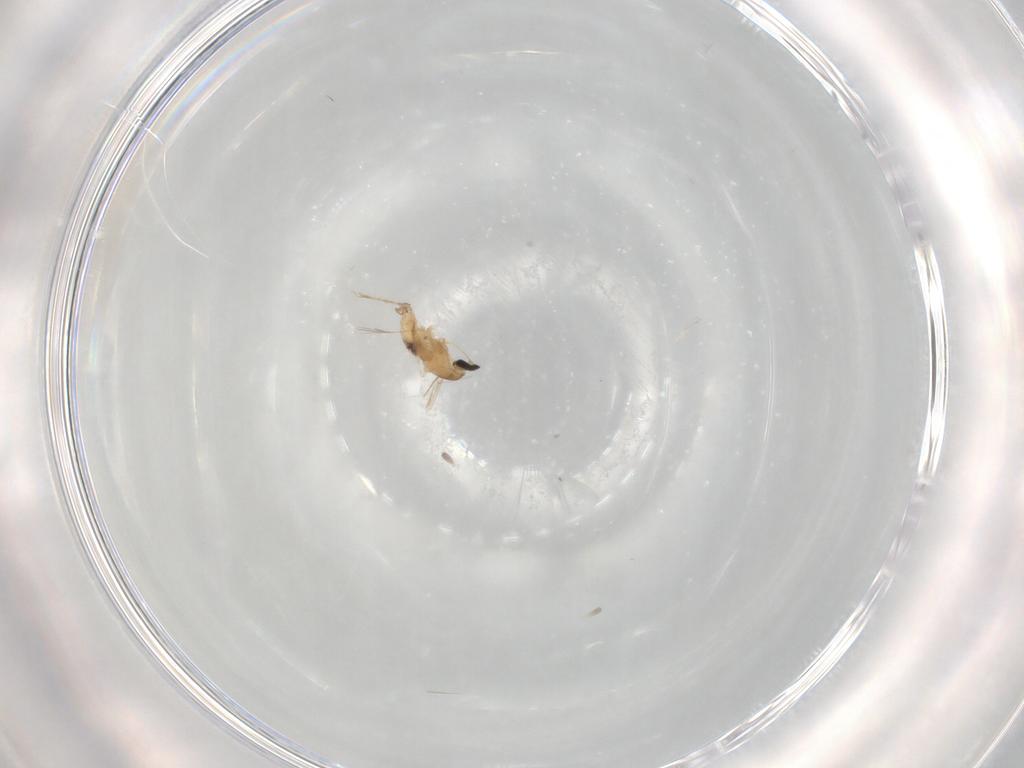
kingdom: Animalia
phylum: Arthropoda
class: Insecta
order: Diptera
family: Cecidomyiidae
